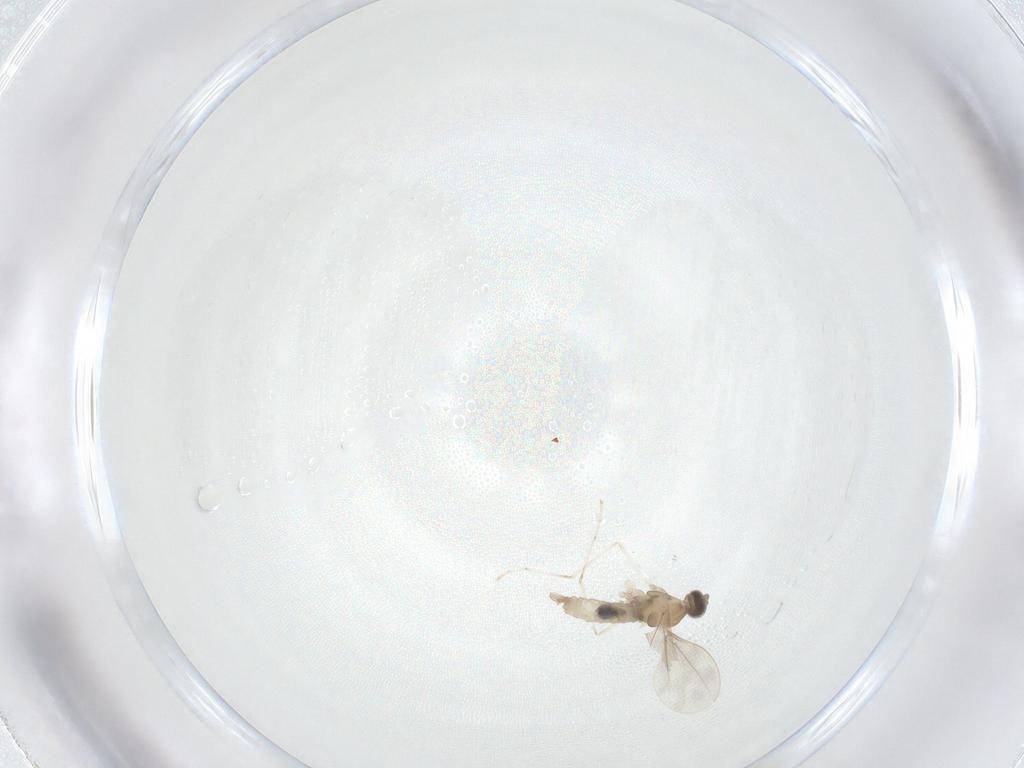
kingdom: Animalia
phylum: Arthropoda
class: Insecta
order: Diptera
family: Cecidomyiidae
